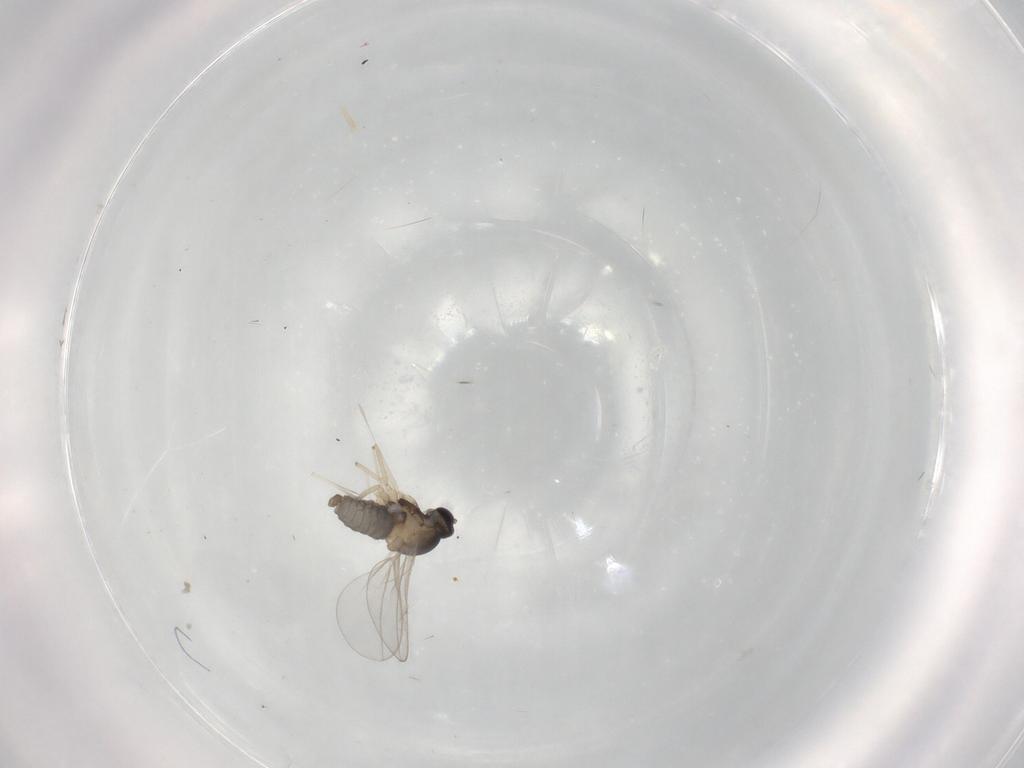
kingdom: Animalia
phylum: Arthropoda
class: Insecta
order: Diptera
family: Cecidomyiidae
